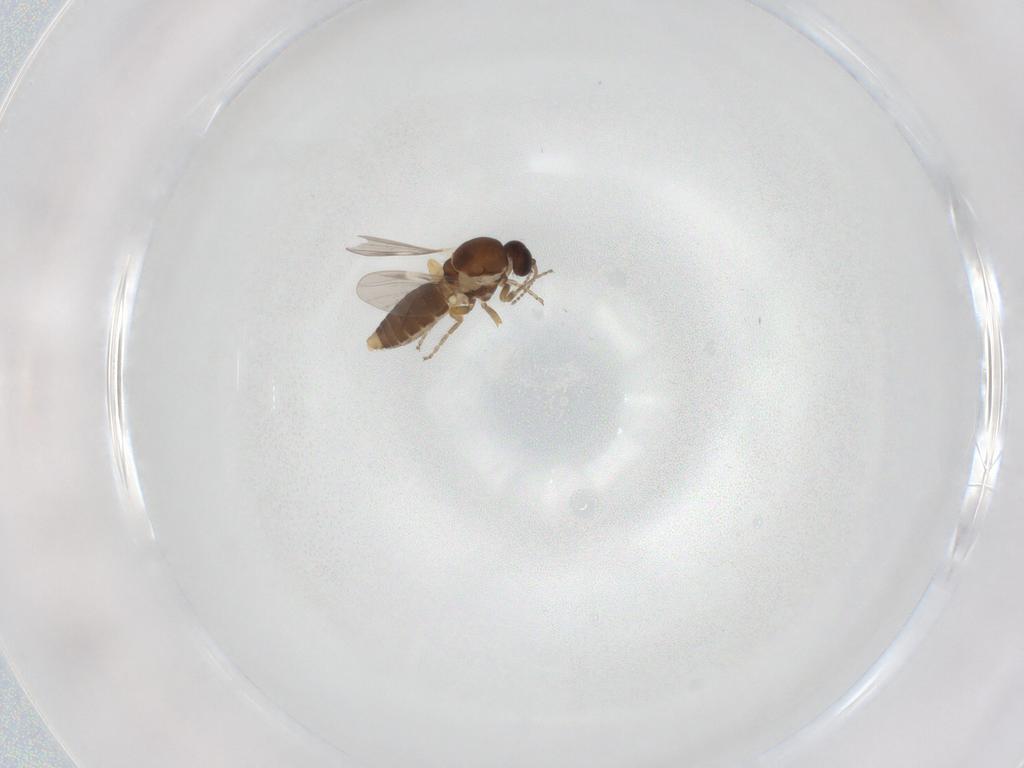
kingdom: Animalia
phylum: Arthropoda
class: Insecta
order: Diptera
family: Ceratopogonidae
